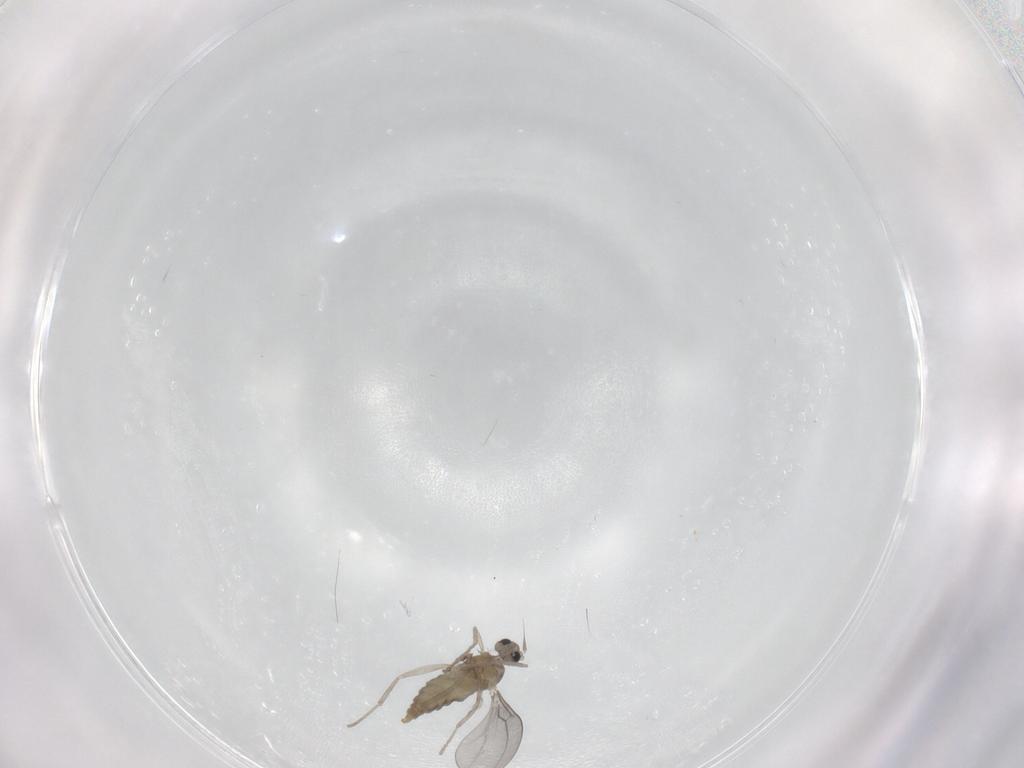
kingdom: Animalia
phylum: Arthropoda
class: Insecta
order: Diptera
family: Cecidomyiidae
